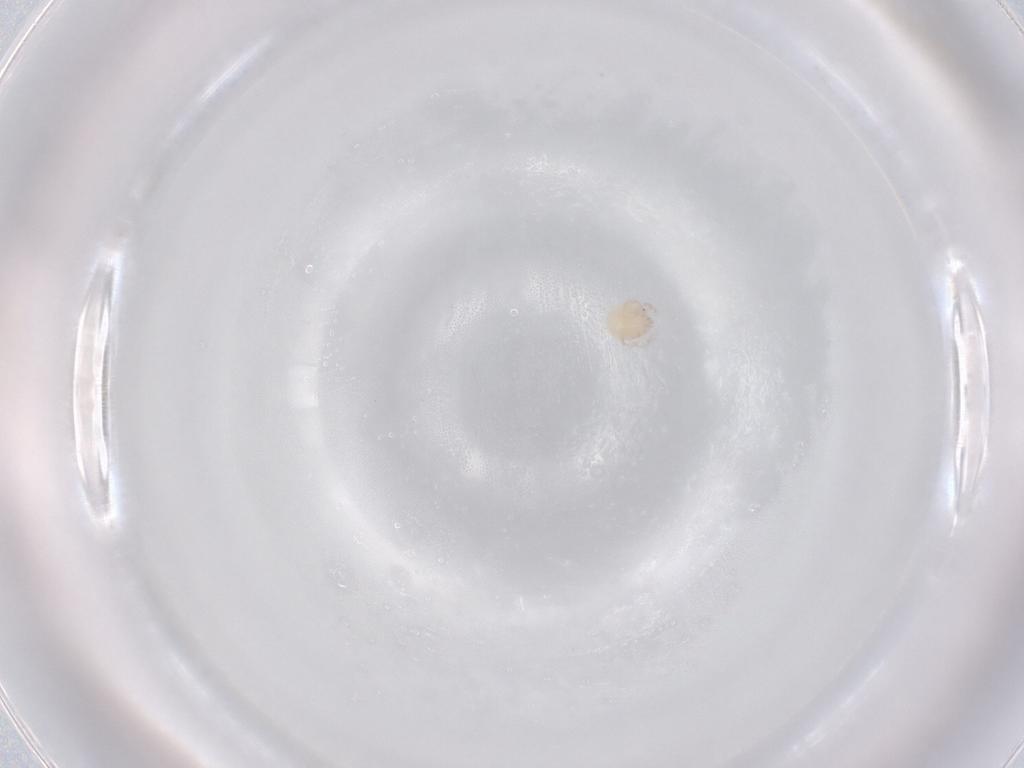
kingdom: Animalia
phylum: Arthropoda
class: Arachnida
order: Trombidiformes
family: Lebertiidae
